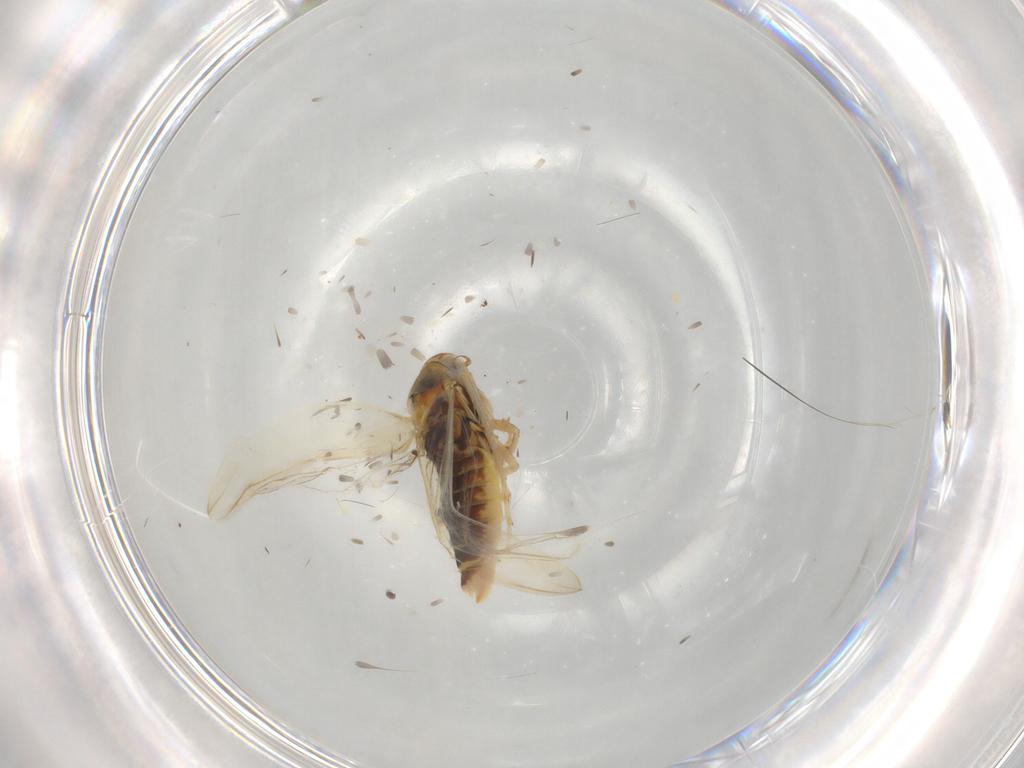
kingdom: Animalia
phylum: Arthropoda
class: Insecta
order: Hemiptera
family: Cicadellidae
